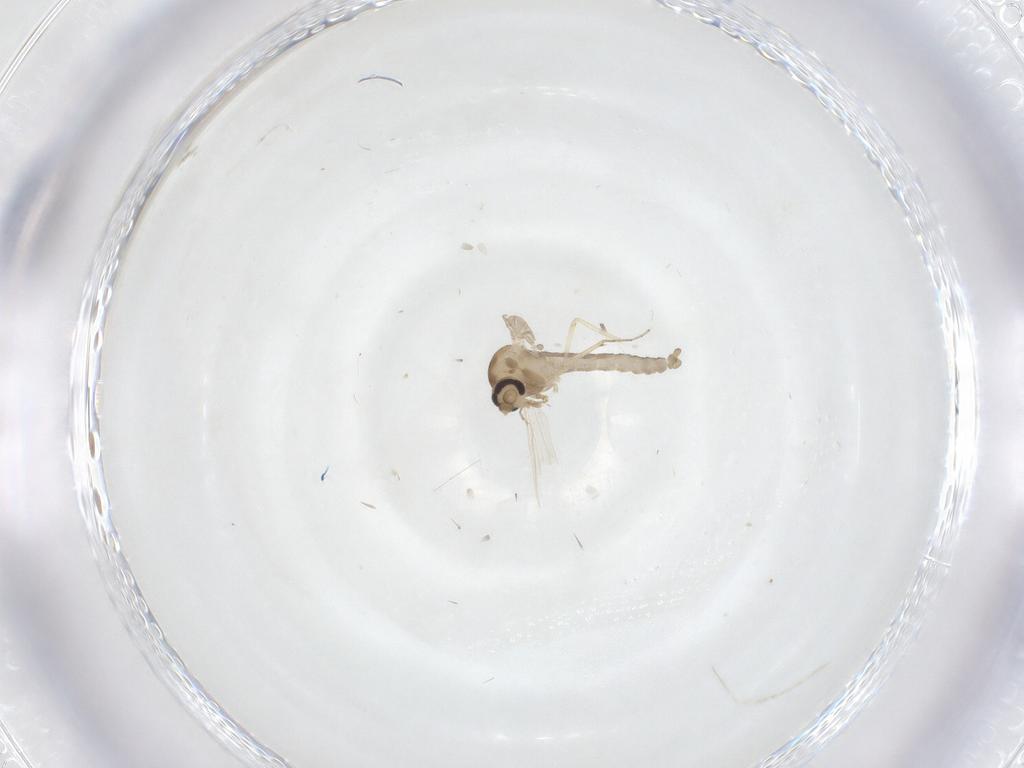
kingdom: Animalia
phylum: Arthropoda
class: Insecta
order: Diptera
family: Ceratopogonidae
